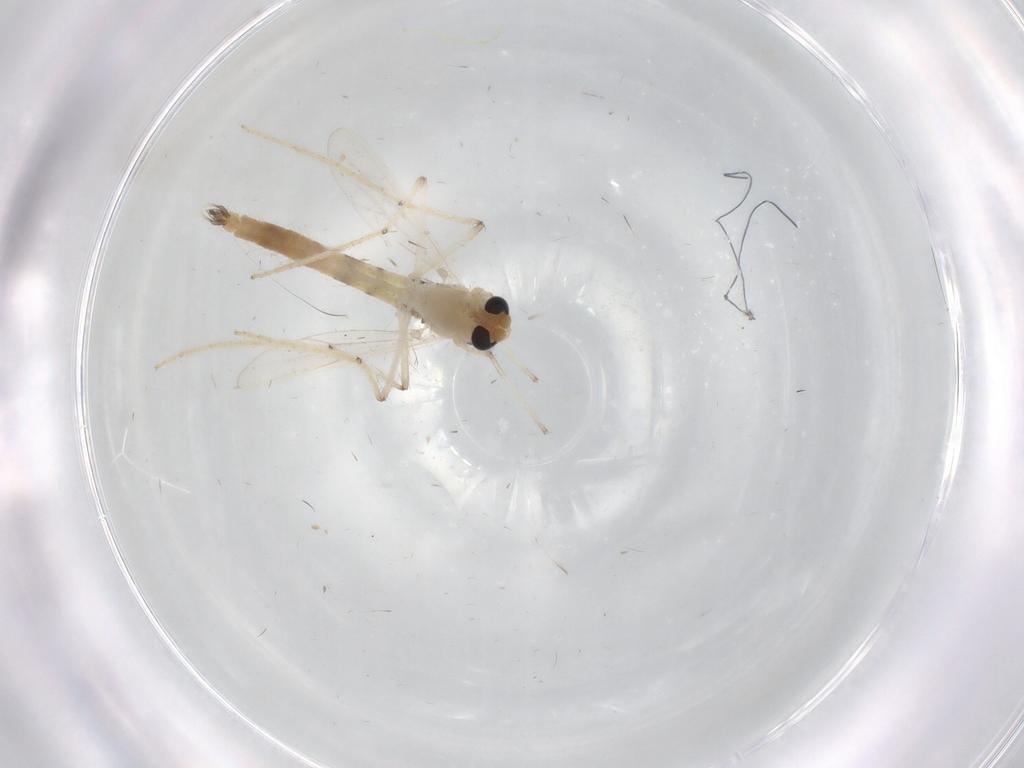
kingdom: Animalia
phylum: Arthropoda
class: Insecta
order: Diptera
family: Chironomidae
